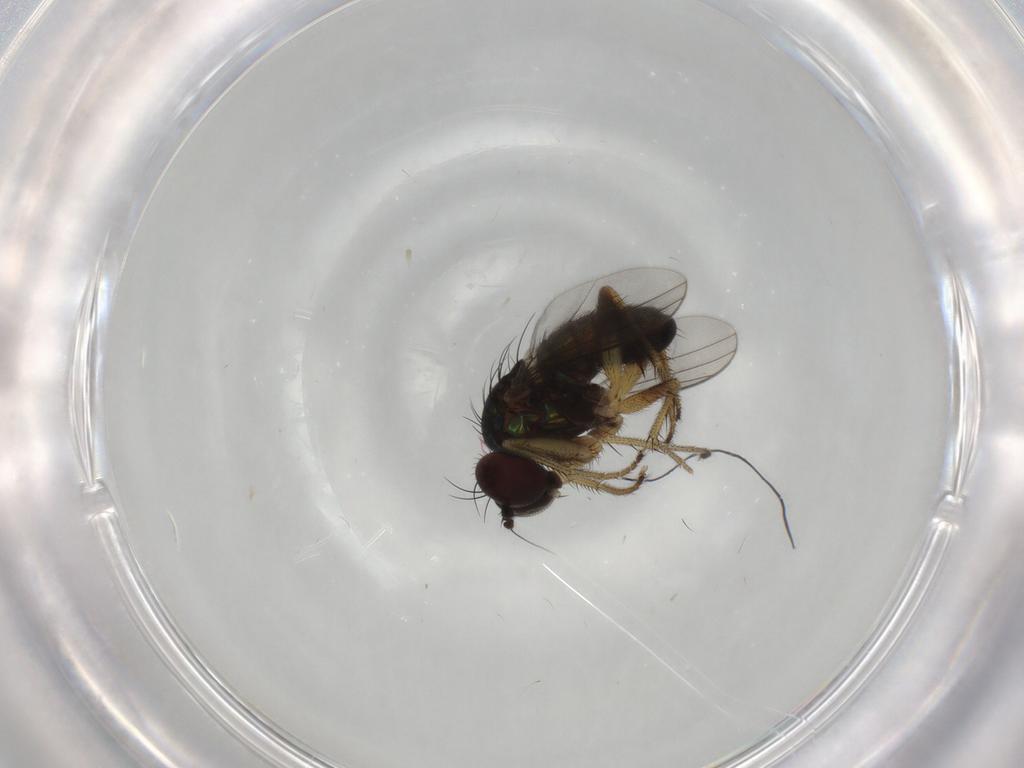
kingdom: Animalia
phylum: Arthropoda
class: Insecta
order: Diptera
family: Dolichopodidae
